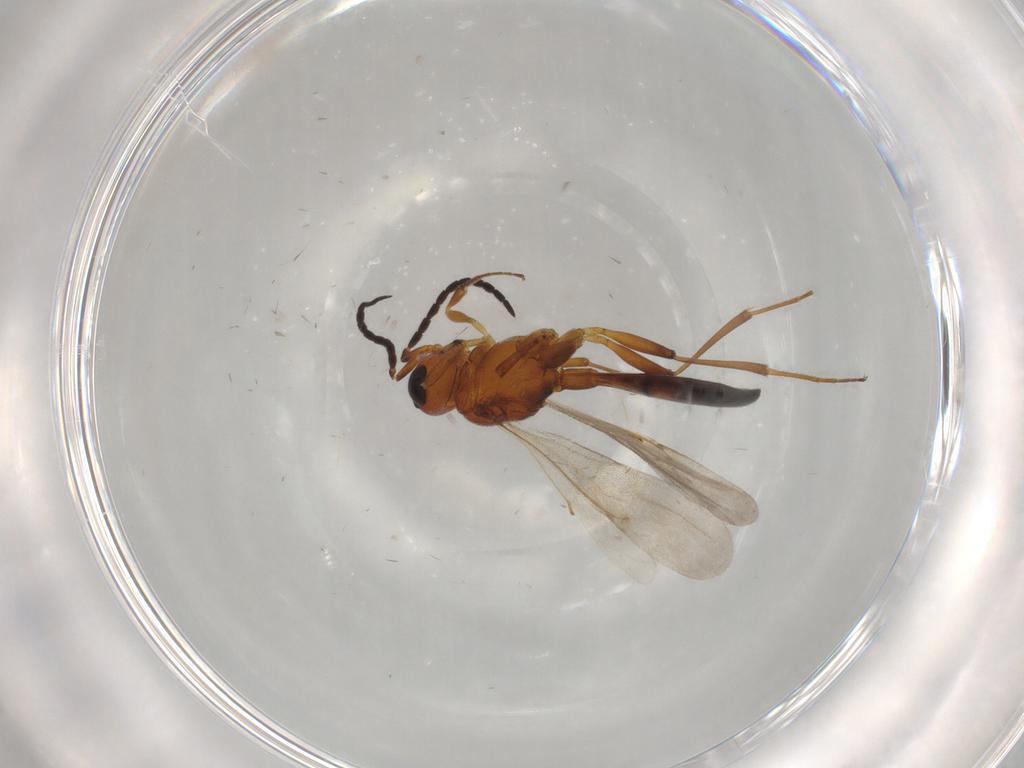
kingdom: Animalia
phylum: Arthropoda
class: Insecta
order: Hymenoptera
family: Scelionidae
